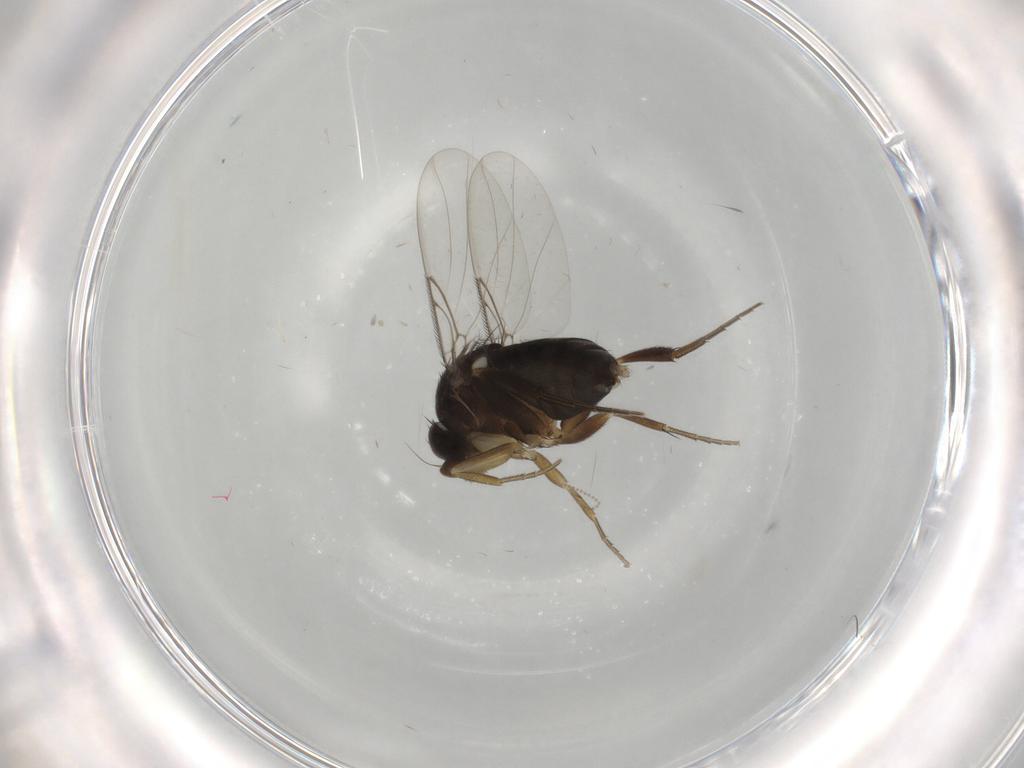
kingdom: Animalia
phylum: Arthropoda
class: Insecta
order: Diptera
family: Phoridae
